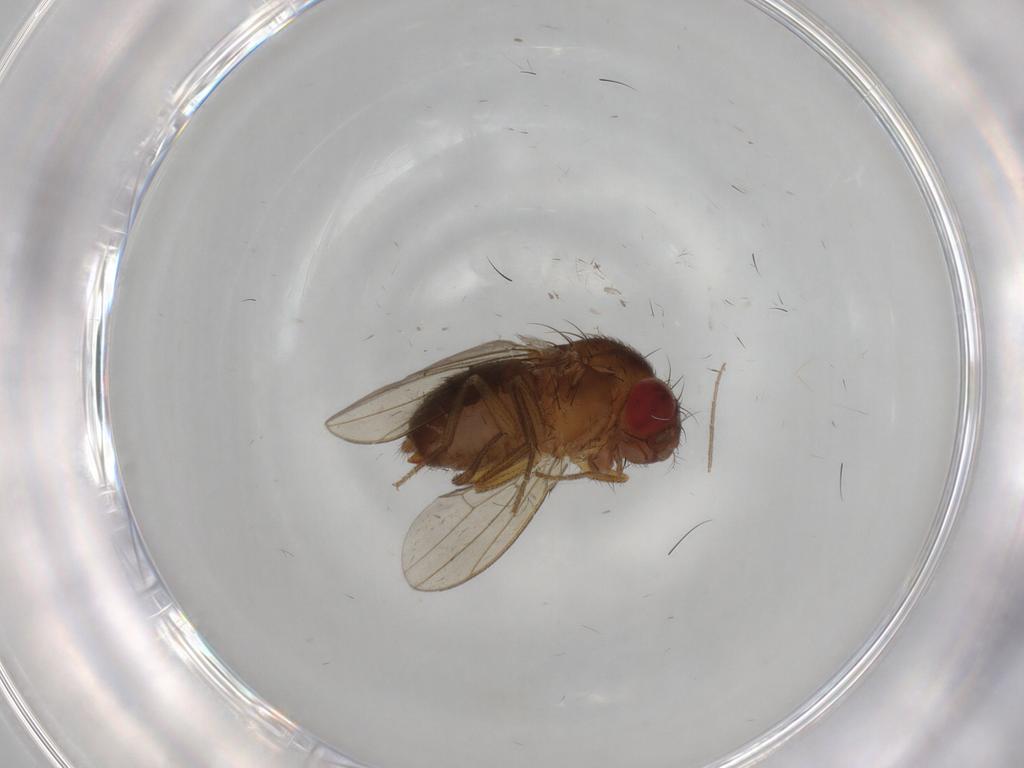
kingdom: Animalia
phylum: Arthropoda
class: Insecta
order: Diptera
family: Drosophilidae
